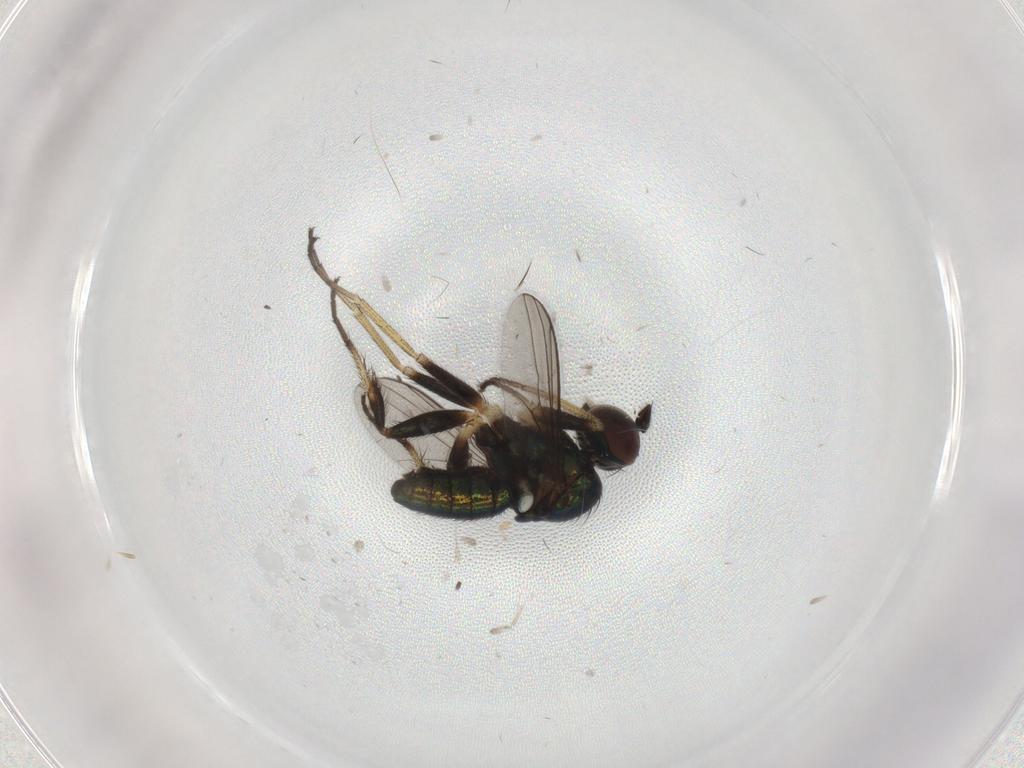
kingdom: Animalia
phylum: Arthropoda
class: Insecta
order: Diptera
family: Dolichopodidae
